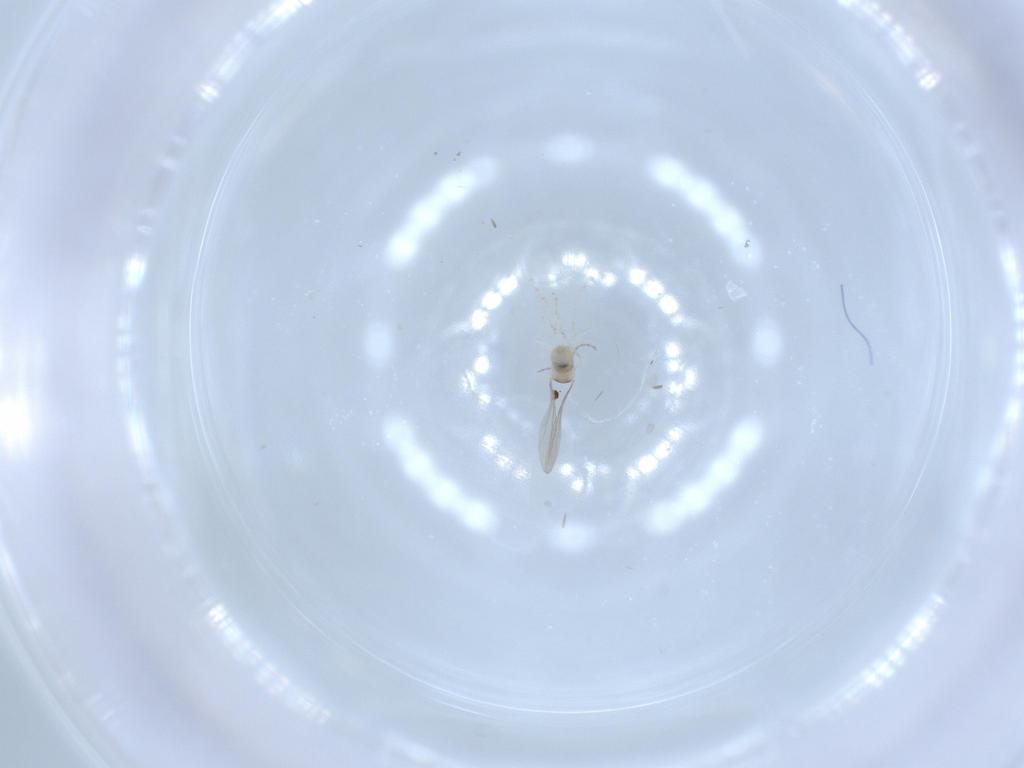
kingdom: Animalia
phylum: Arthropoda
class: Insecta
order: Diptera
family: Cecidomyiidae
